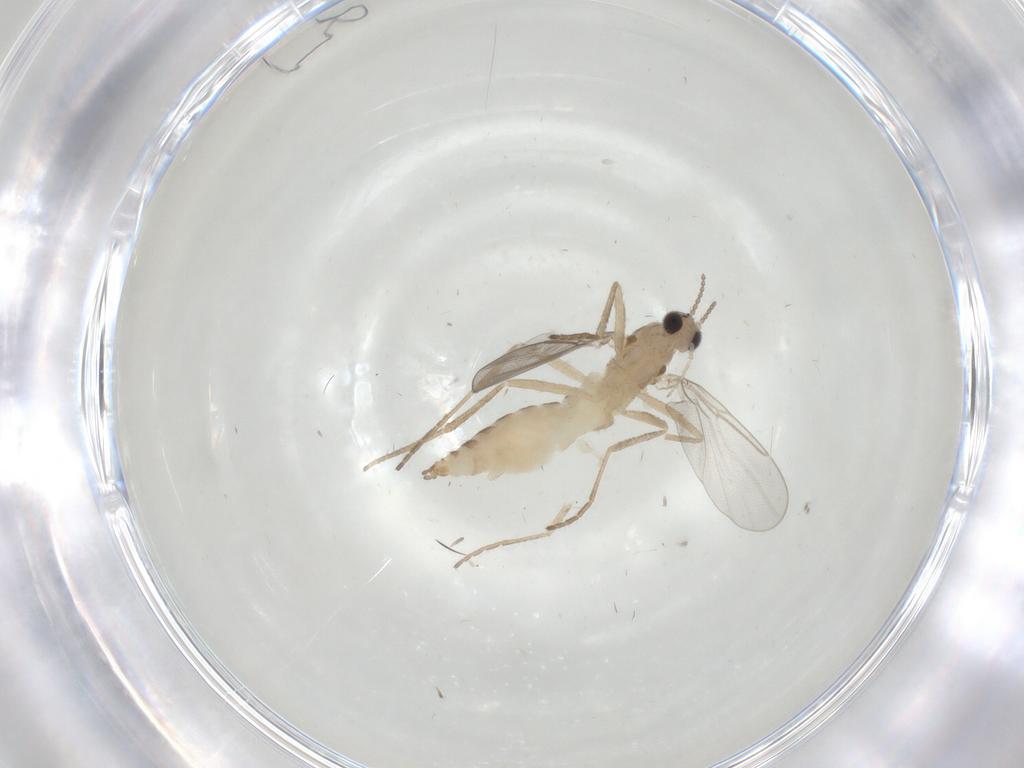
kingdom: Animalia
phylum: Arthropoda
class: Insecta
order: Diptera
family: Cecidomyiidae
